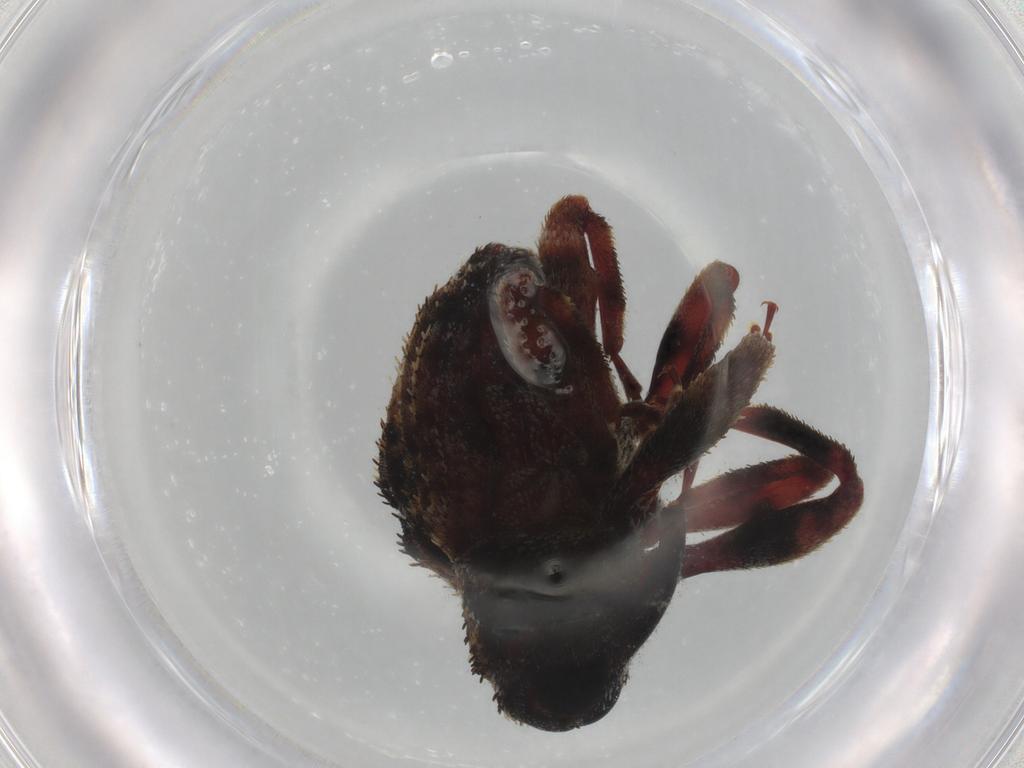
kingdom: Animalia
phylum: Arthropoda
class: Insecta
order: Coleoptera
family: Curculionidae
